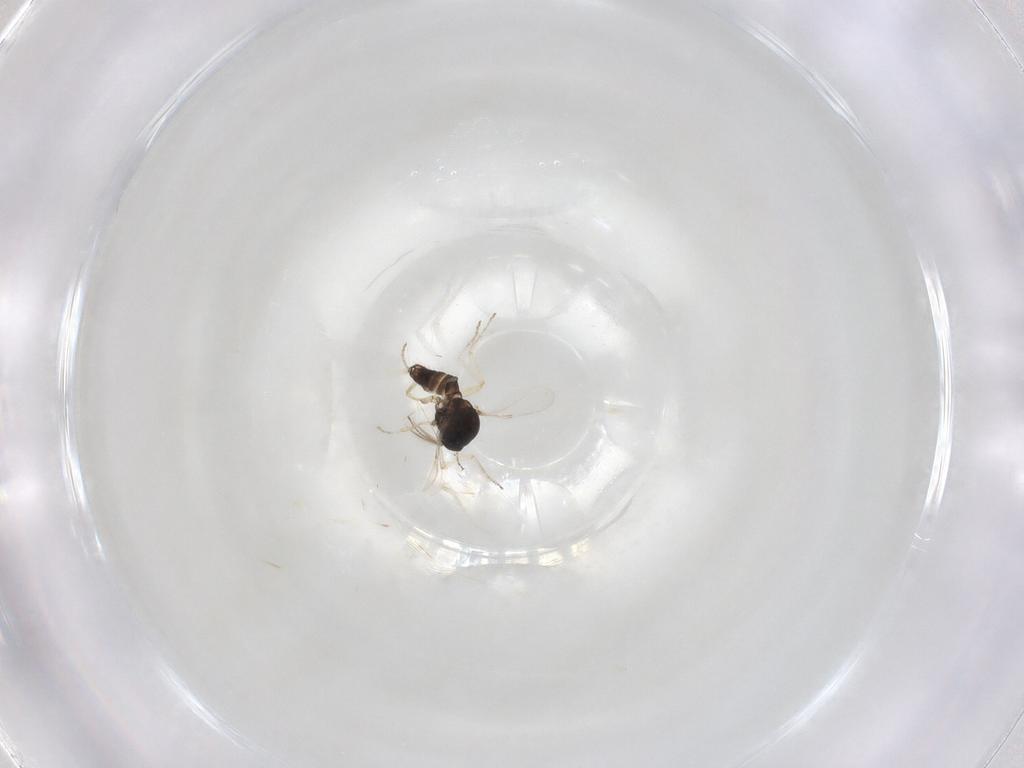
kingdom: Animalia
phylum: Arthropoda
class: Insecta
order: Diptera
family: Ceratopogonidae
